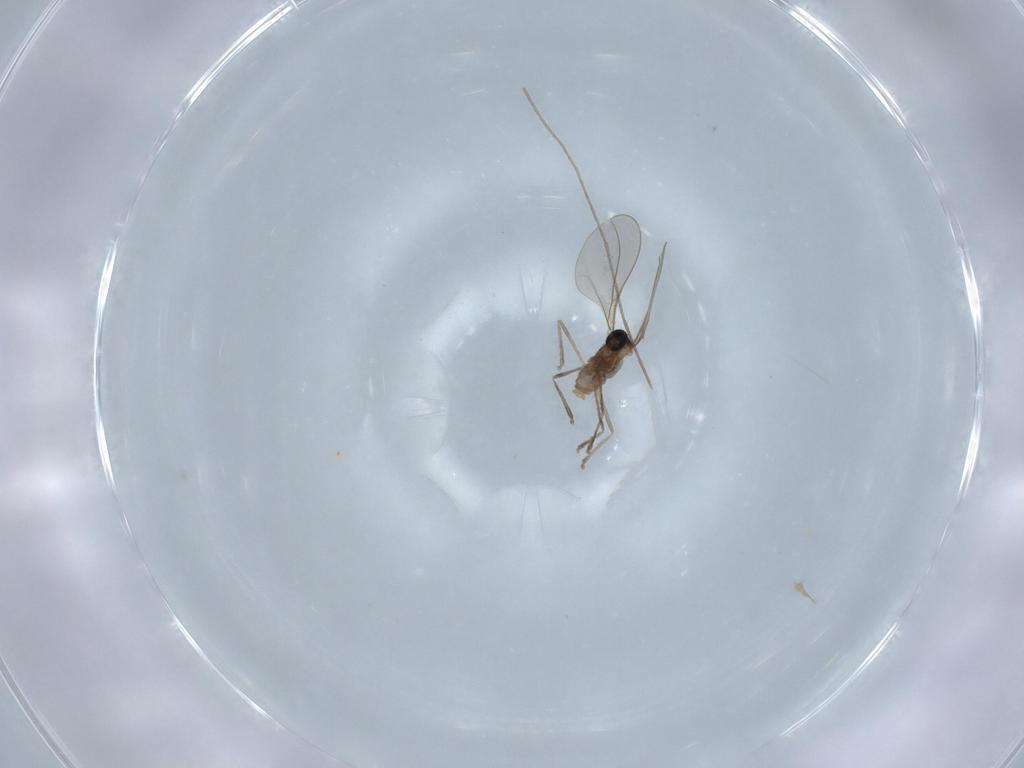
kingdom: Animalia
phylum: Arthropoda
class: Insecta
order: Diptera
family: Cecidomyiidae
